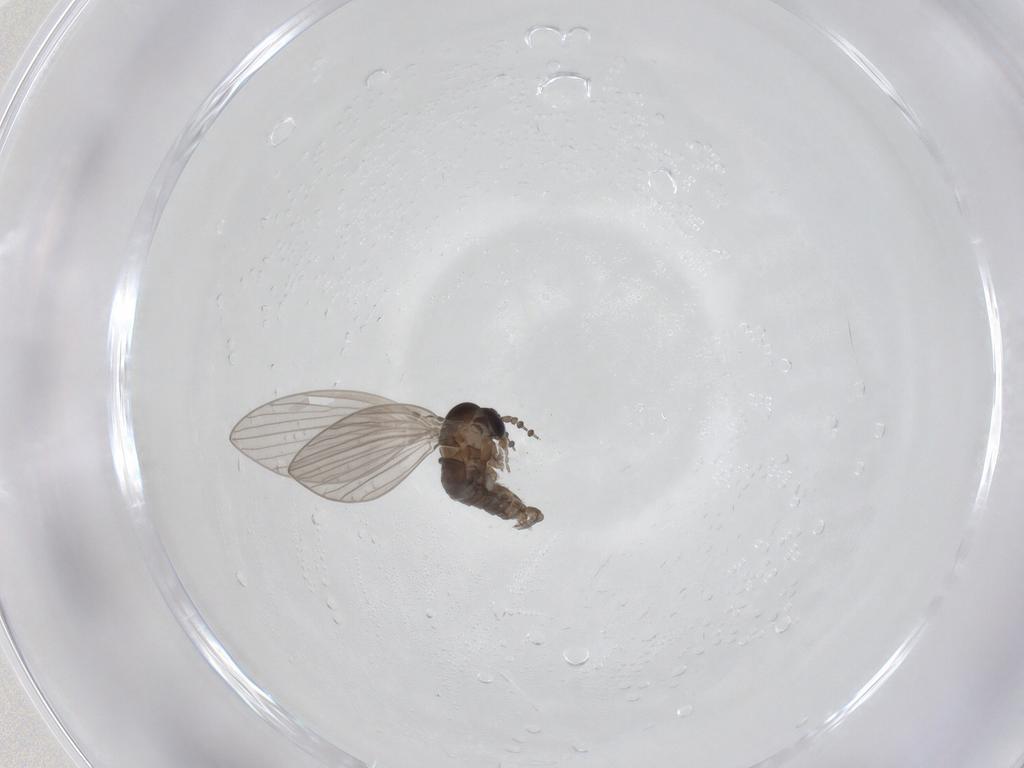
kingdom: Animalia
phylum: Arthropoda
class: Insecta
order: Diptera
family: Psychodidae
